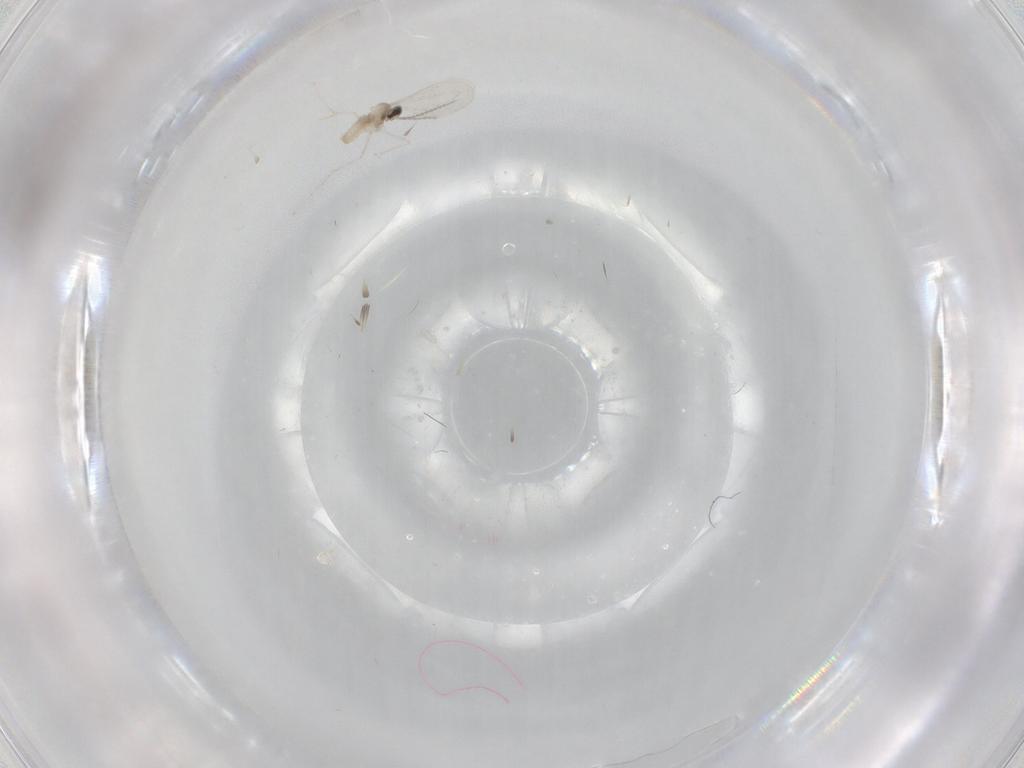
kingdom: Animalia
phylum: Arthropoda
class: Insecta
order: Diptera
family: Cecidomyiidae
